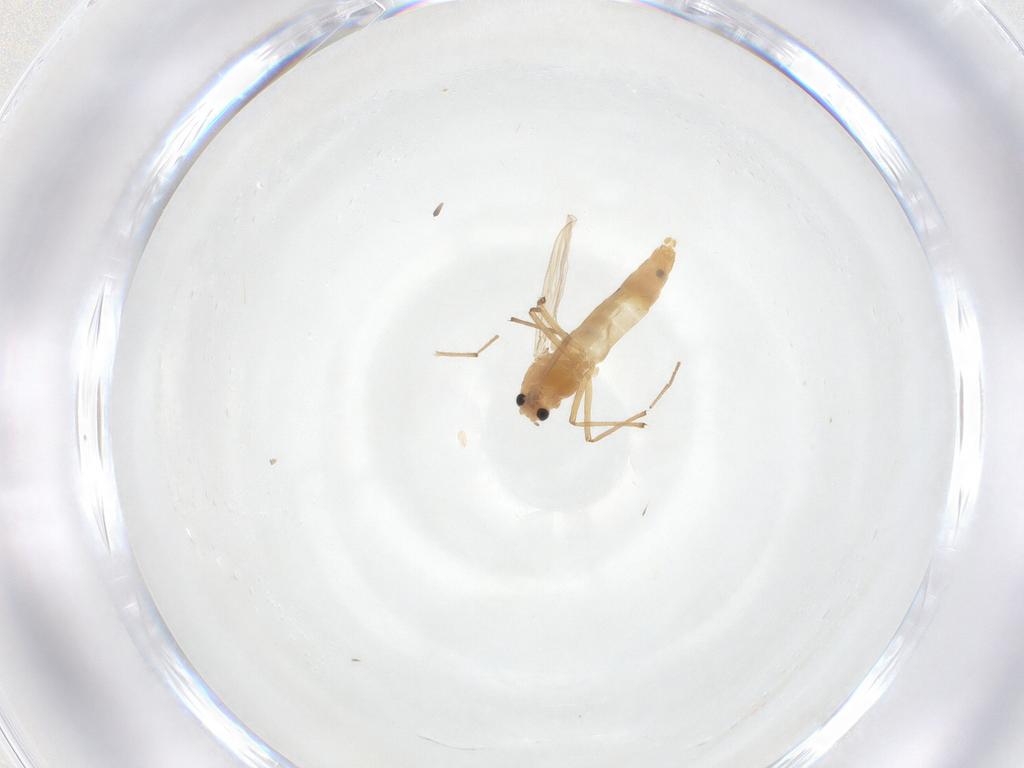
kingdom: Animalia
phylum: Arthropoda
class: Insecta
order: Diptera
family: Chironomidae
